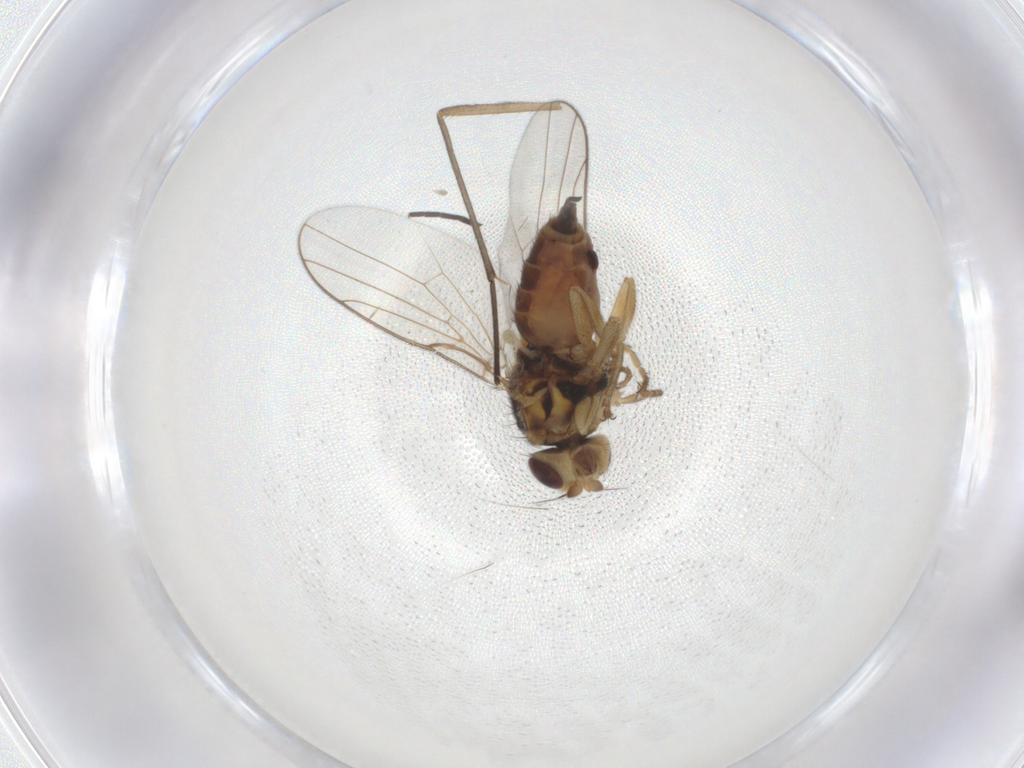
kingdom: Animalia
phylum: Arthropoda
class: Insecta
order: Diptera
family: Chloropidae
